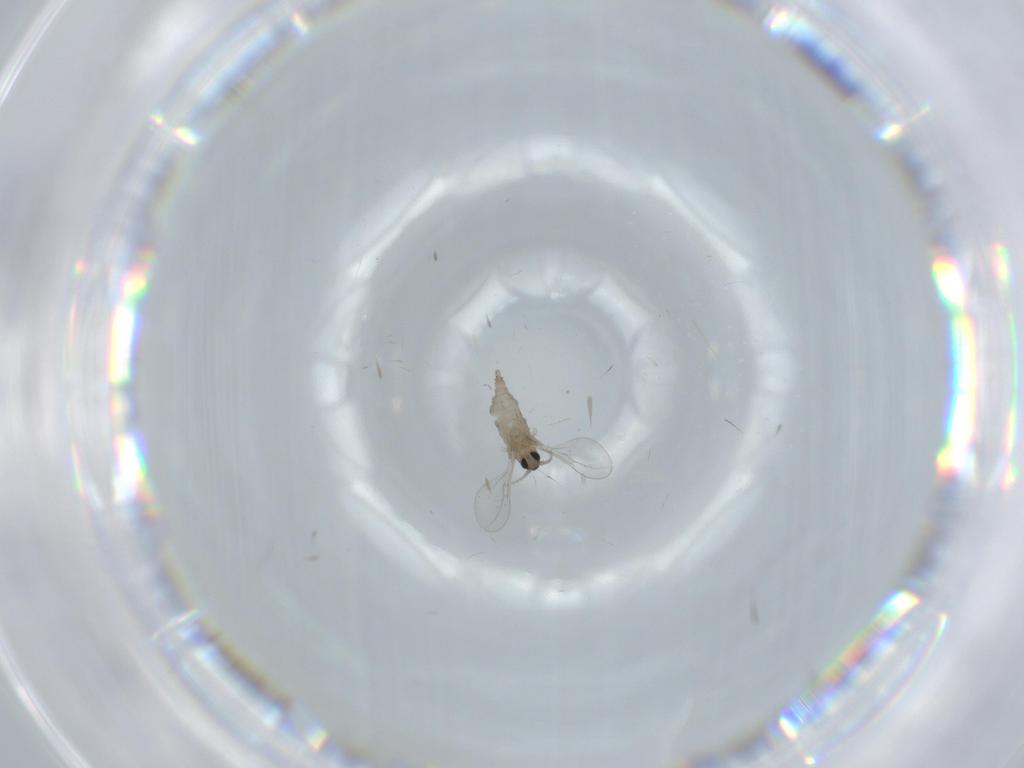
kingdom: Animalia
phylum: Arthropoda
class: Insecta
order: Diptera
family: Cecidomyiidae
